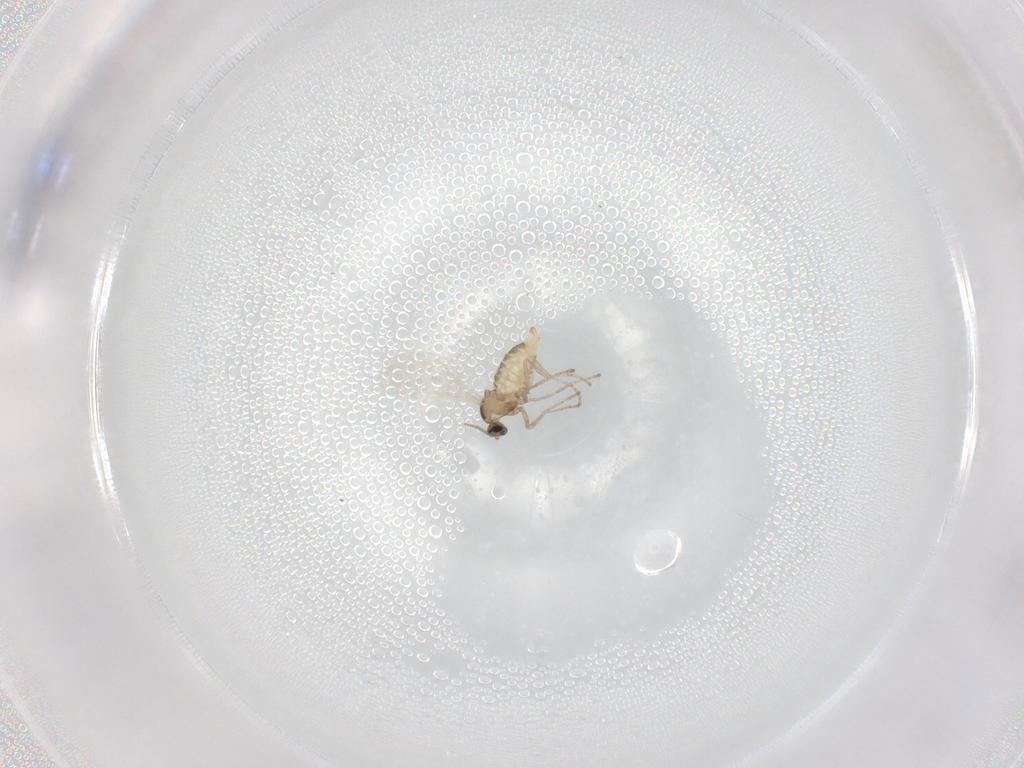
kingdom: Animalia
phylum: Arthropoda
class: Insecta
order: Diptera
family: Cecidomyiidae
